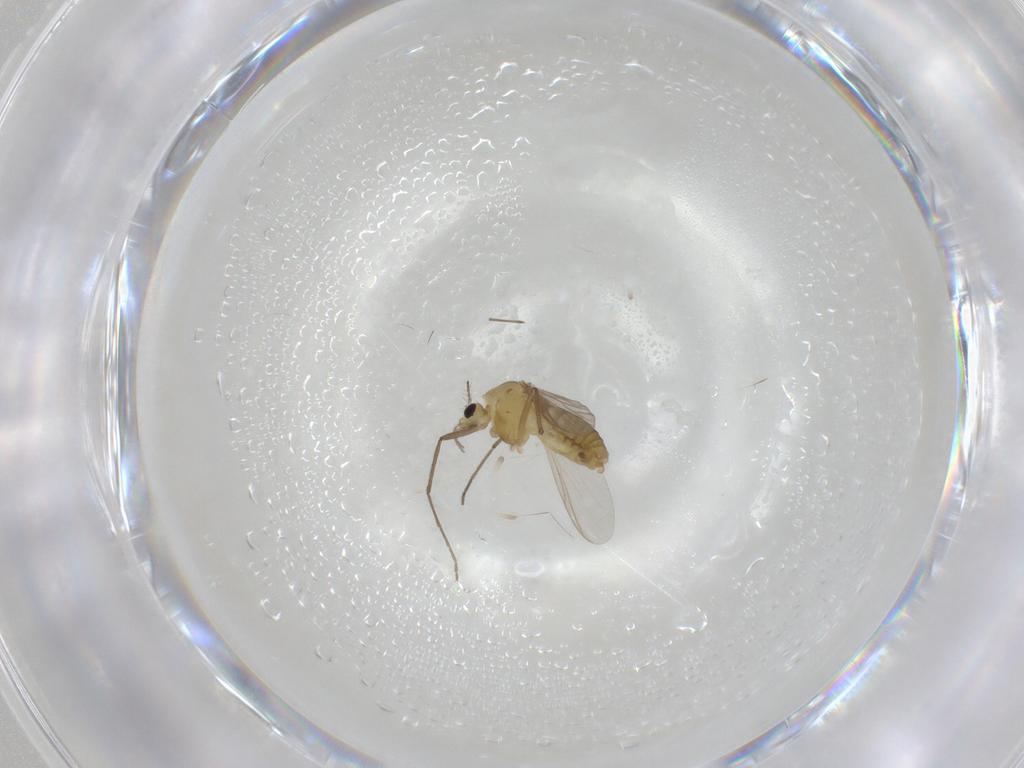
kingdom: Animalia
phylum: Arthropoda
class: Insecta
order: Diptera
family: Chironomidae
